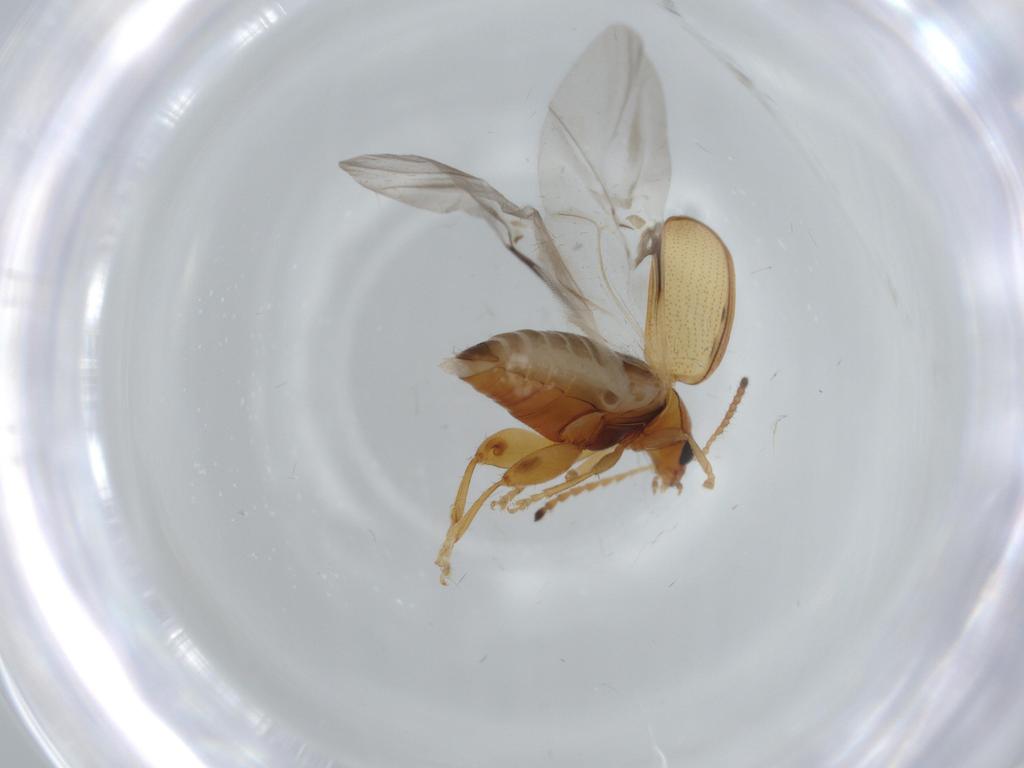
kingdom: Animalia
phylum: Arthropoda
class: Insecta
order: Coleoptera
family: Chrysomelidae
